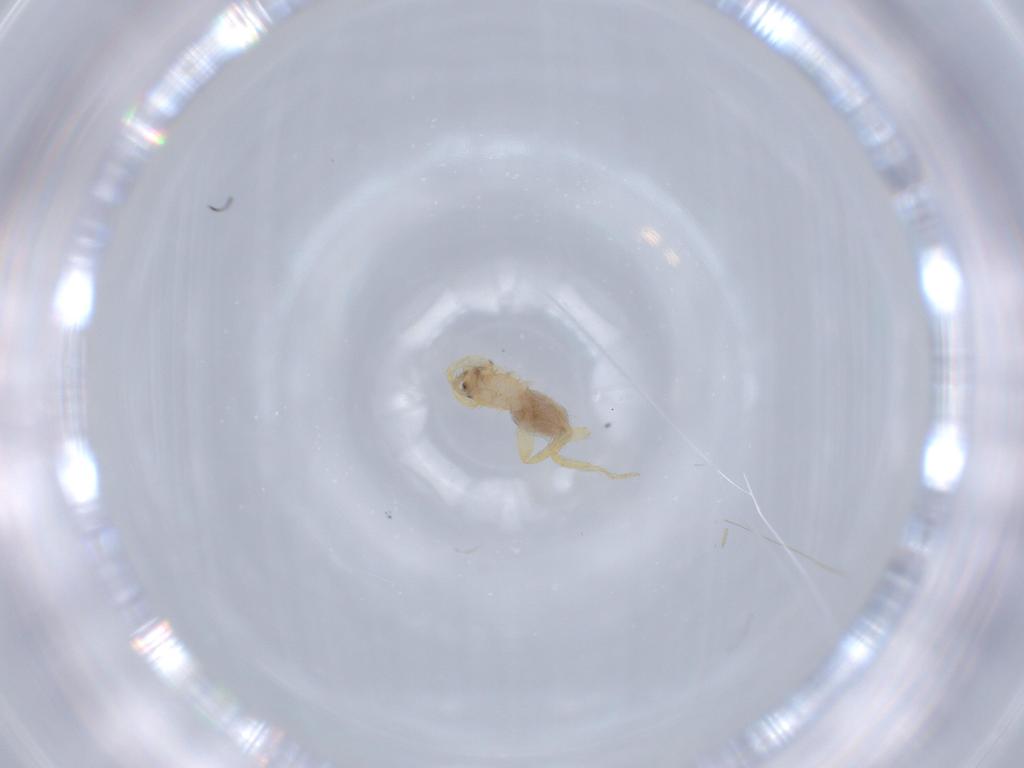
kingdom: Animalia
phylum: Arthropoda
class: Arachnida
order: Araneae
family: Oonopidae
